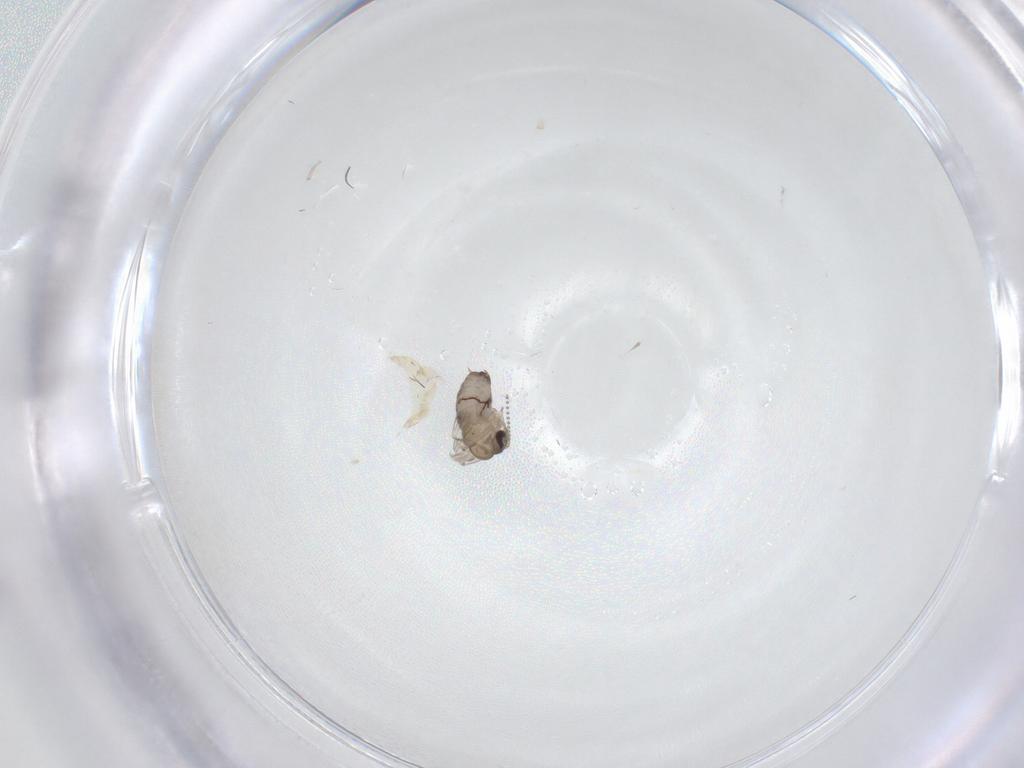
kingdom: Animalia
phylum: Arthropoda
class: Insecta
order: Diptera
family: Psychodidae
